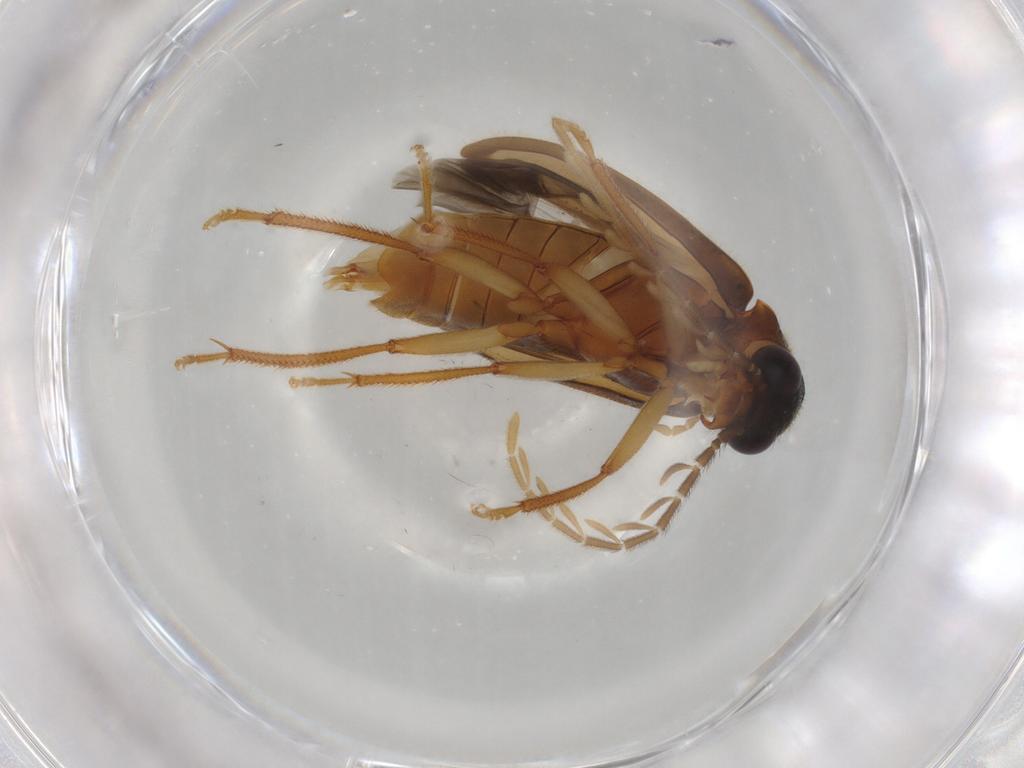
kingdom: Animalia
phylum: Arthropoda
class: Insecta
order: Coleoptera
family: Ptilodactylidae
